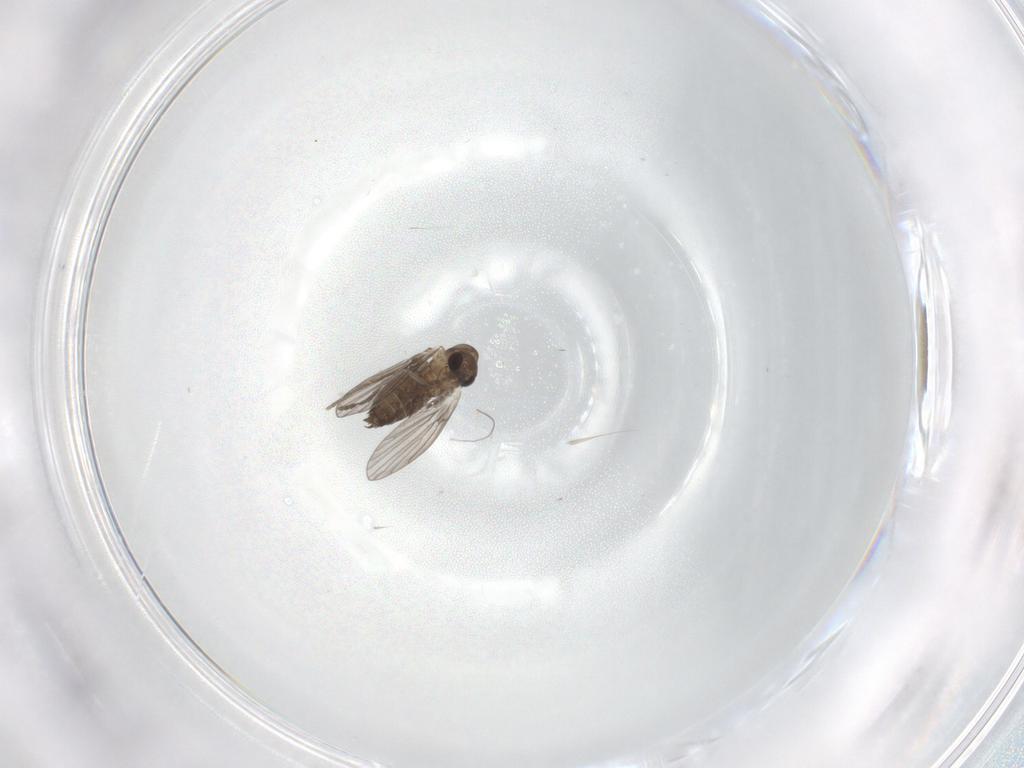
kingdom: Animalia
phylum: Arthropoda
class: Insecta
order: Diptera
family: Cecidomyiidae
